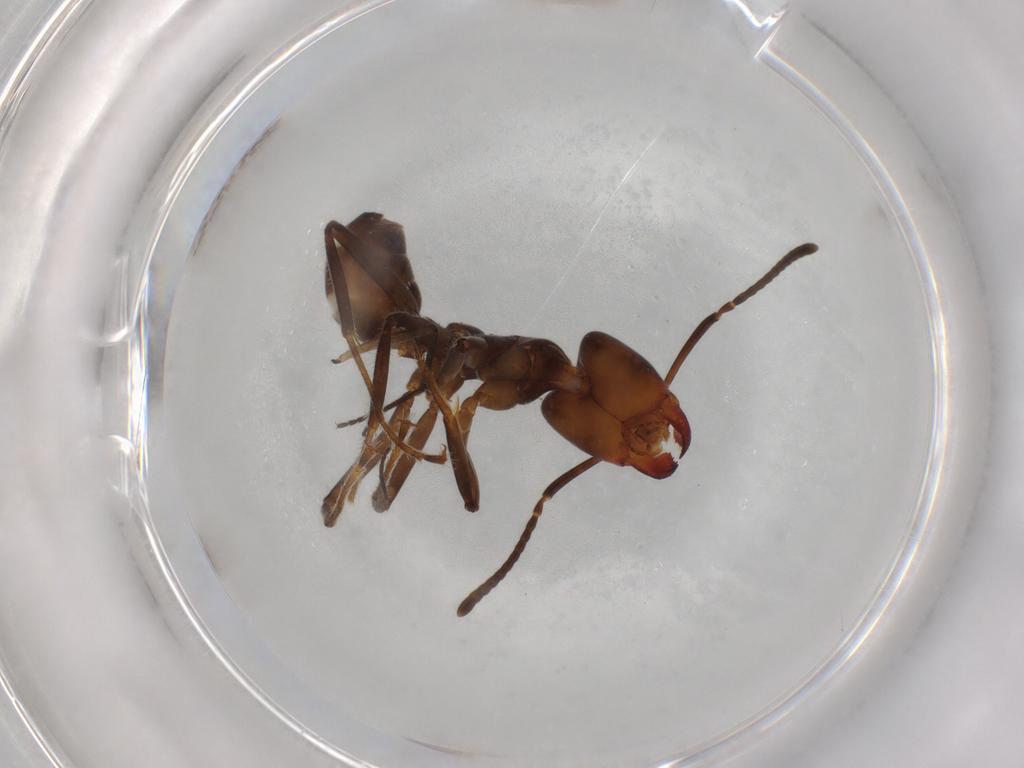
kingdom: Animalia
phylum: Arthropoda
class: Insecta
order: Hymenoptera
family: Formicidae
